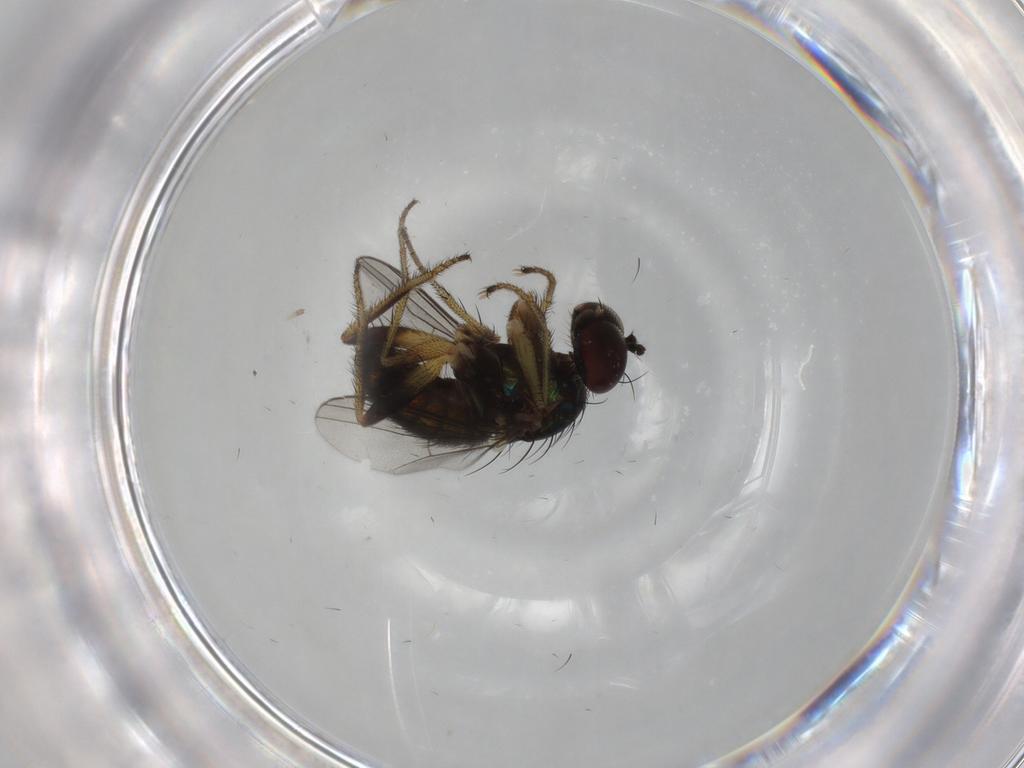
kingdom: Animalia
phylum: Arthropoda
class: Insecta
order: Diptera
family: Dolichopodidae
